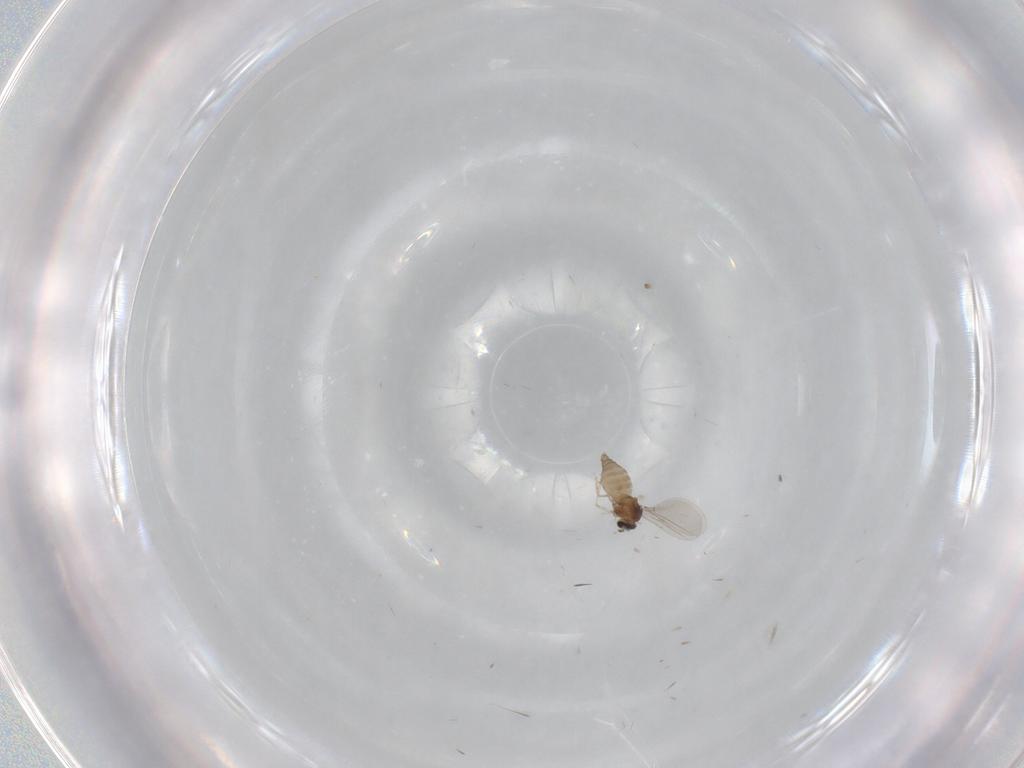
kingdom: Animalia
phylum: Arthropoda
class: Insecta
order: Diptera
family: Cecidomyiidae
